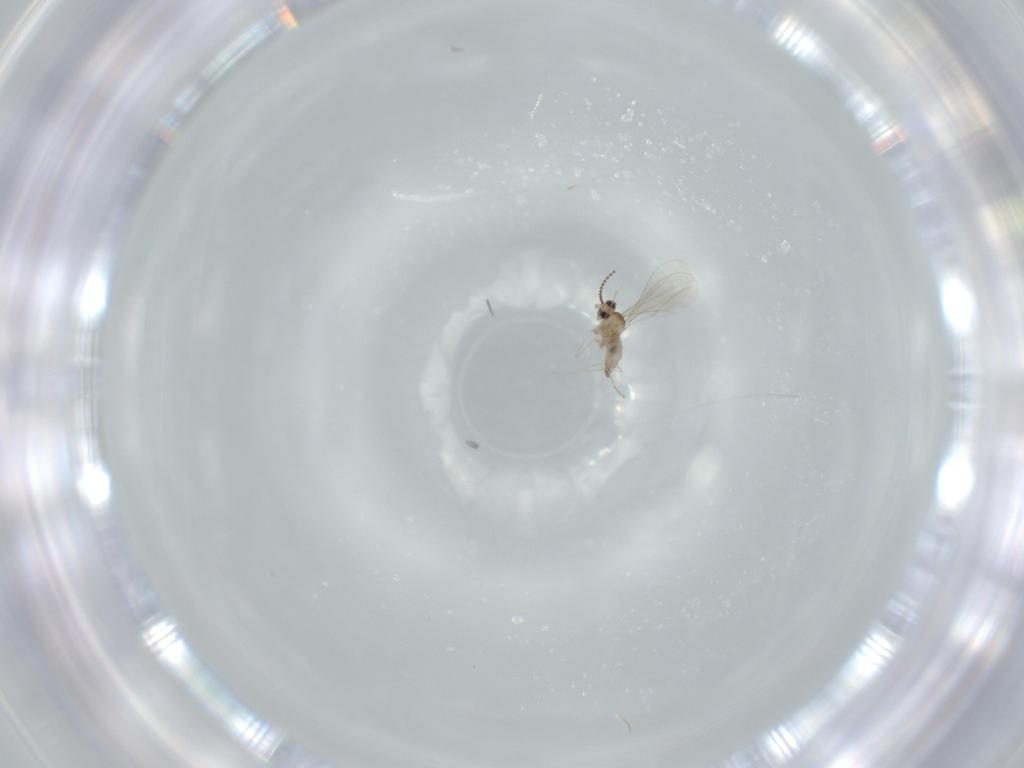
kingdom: Animalia
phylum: Arthropoda
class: Insecta
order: Diptera
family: Cecidomyiidae
